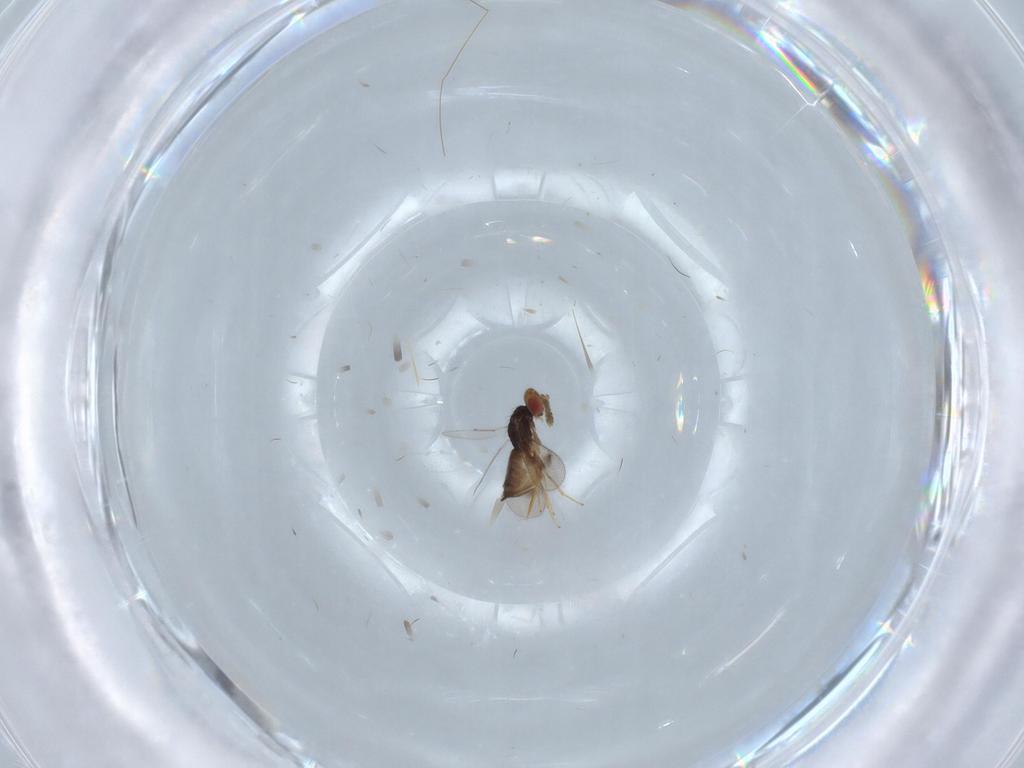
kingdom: Animalia
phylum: Arthropoda
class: Insecta
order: Hymenoptera
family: Eulophidae
